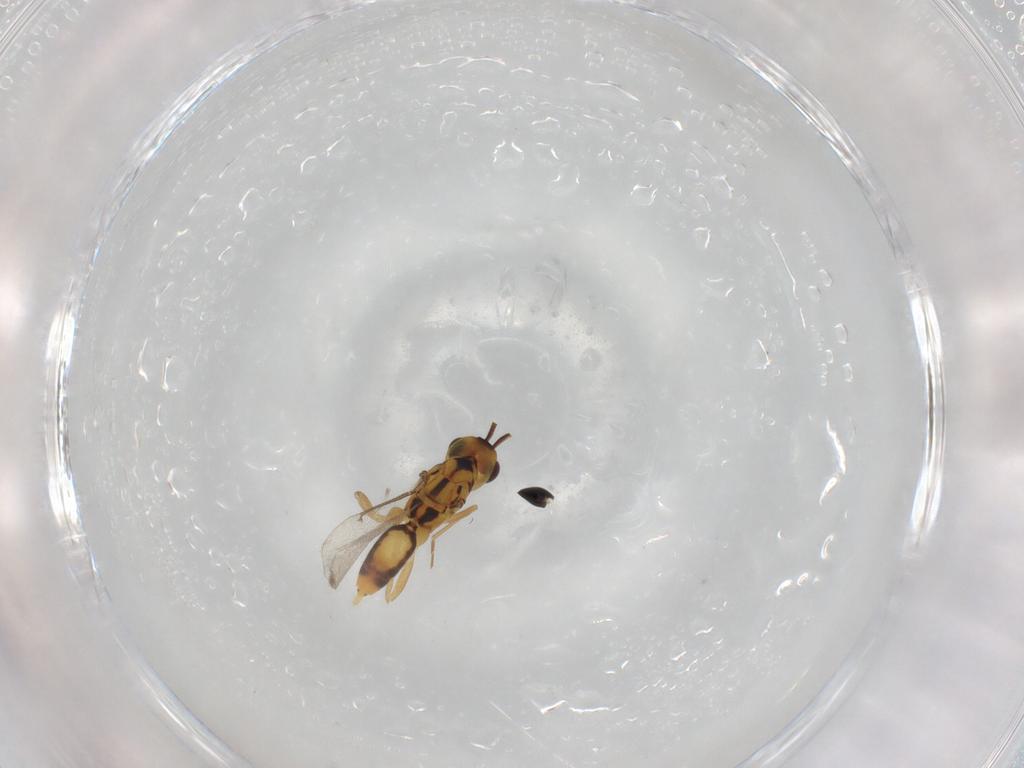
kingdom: Animalia
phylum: Arthropoda
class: Insecta
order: Hymenoptera
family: Platygastridae
